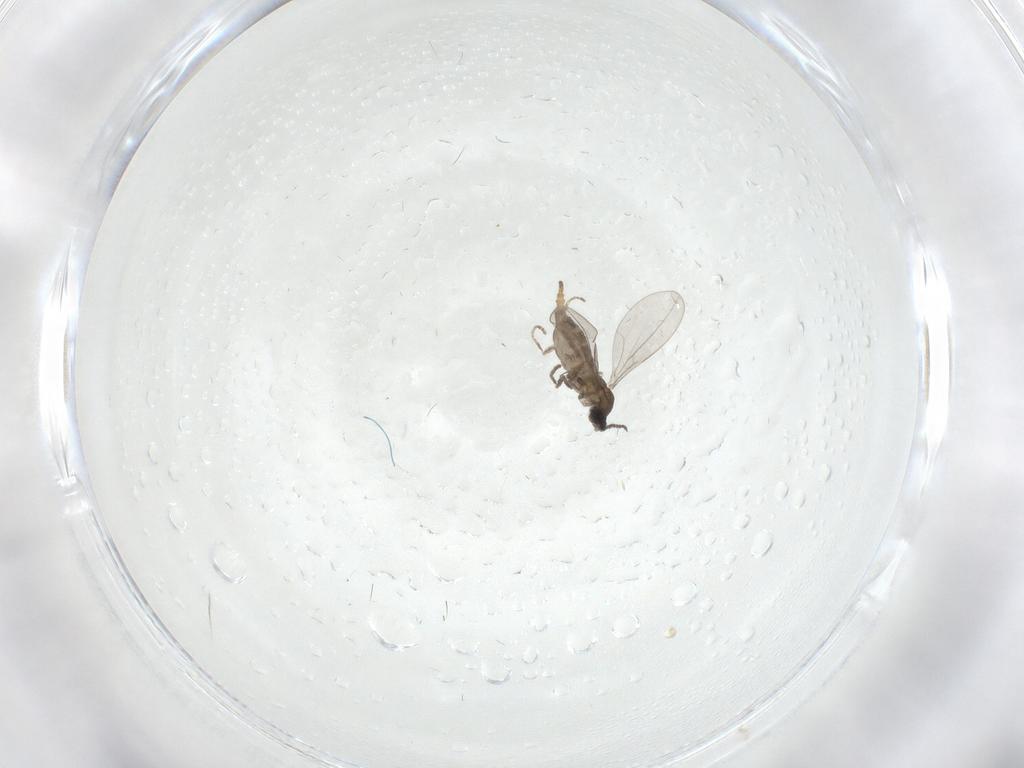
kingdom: Animalia
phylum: Arthropoda
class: Insecta
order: Diptera
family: Cecidomyiidae
